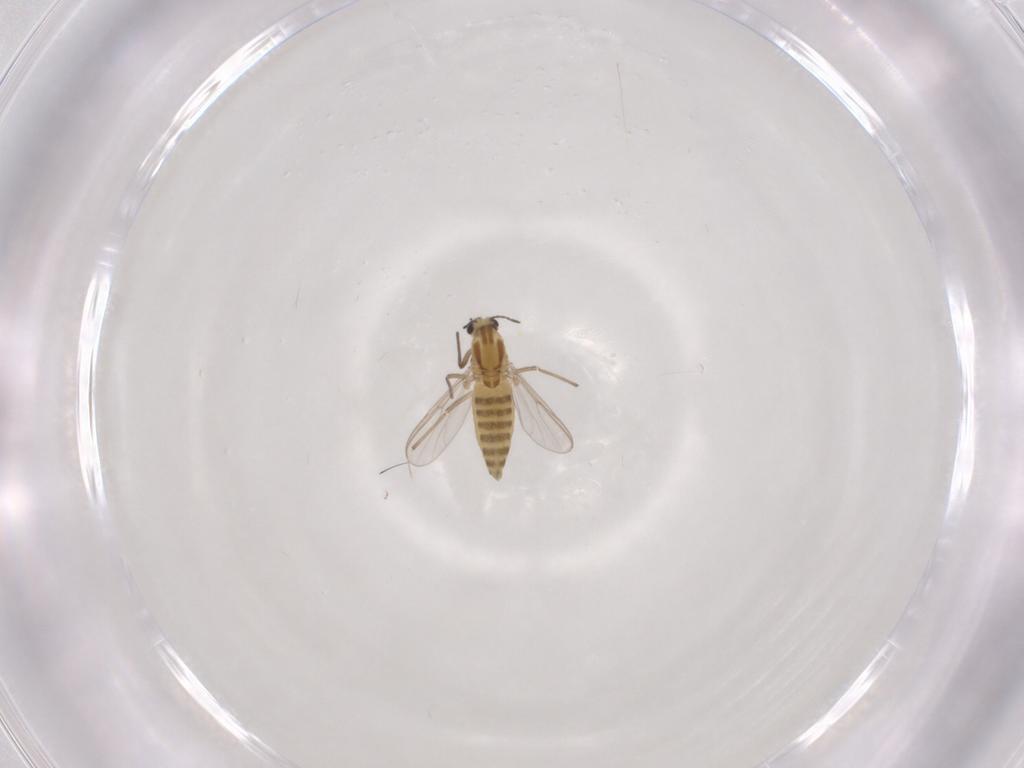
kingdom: Animalia
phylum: Arthropoda
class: Insecta
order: Diptera
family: Chironomidae
